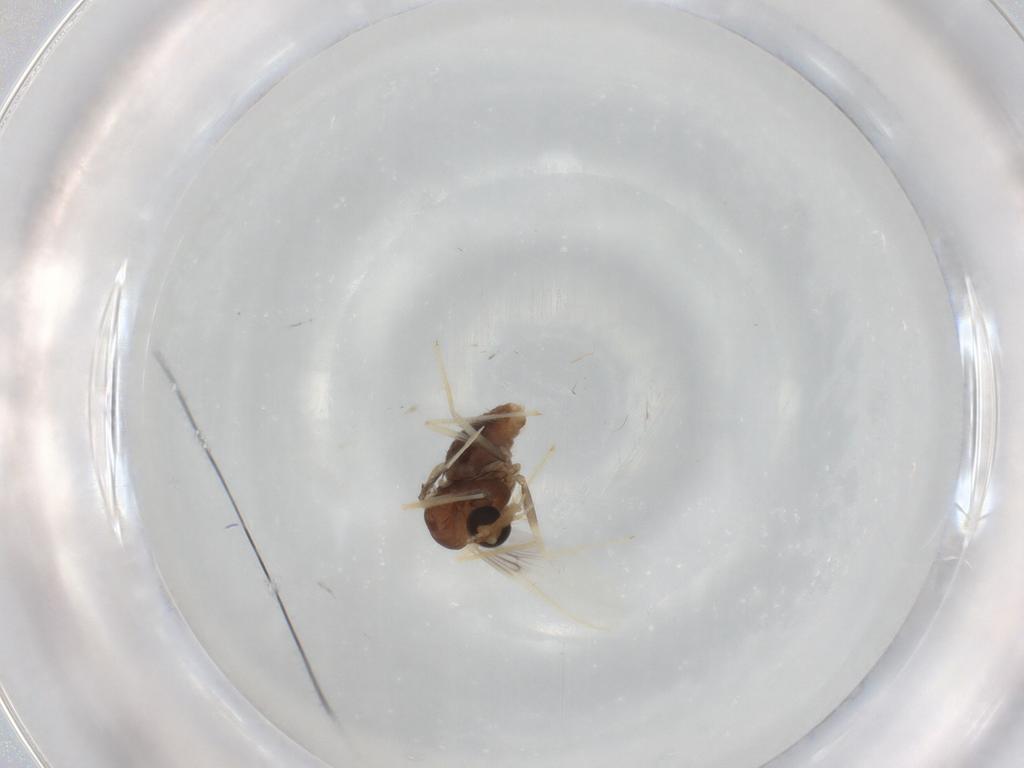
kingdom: Animalia
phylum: Arthropoda
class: Insecta
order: Diptera
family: Chironomidae
